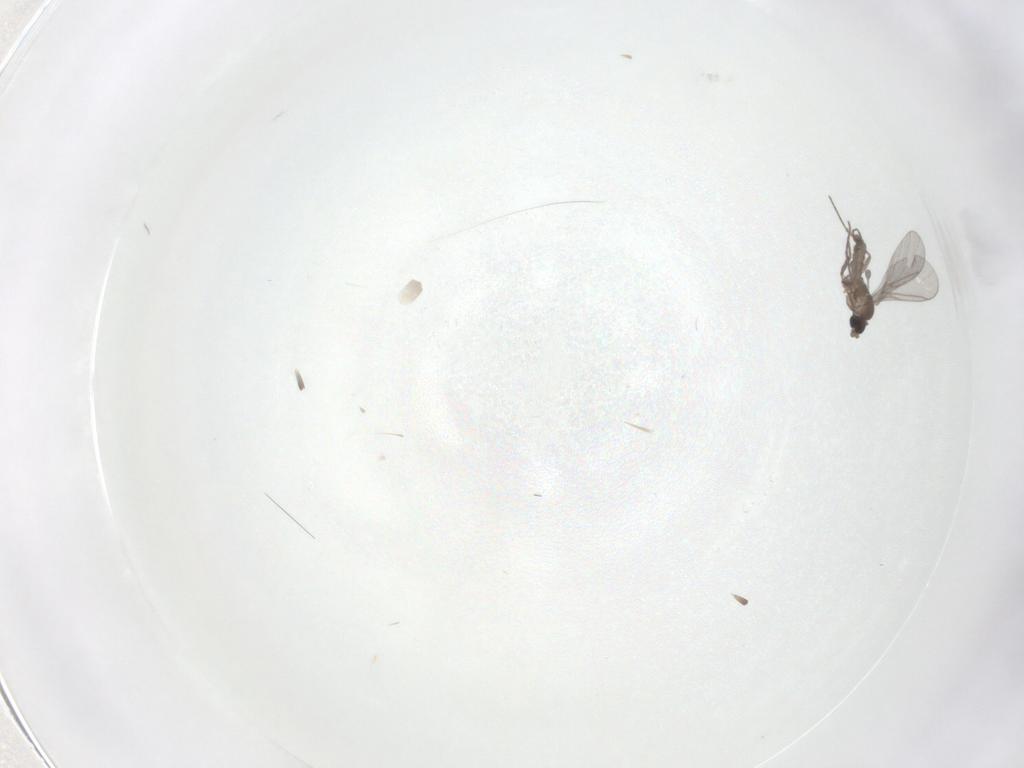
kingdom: Animalia
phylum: Arthropoda
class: Insecta
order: Diptera
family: Sciaridae
